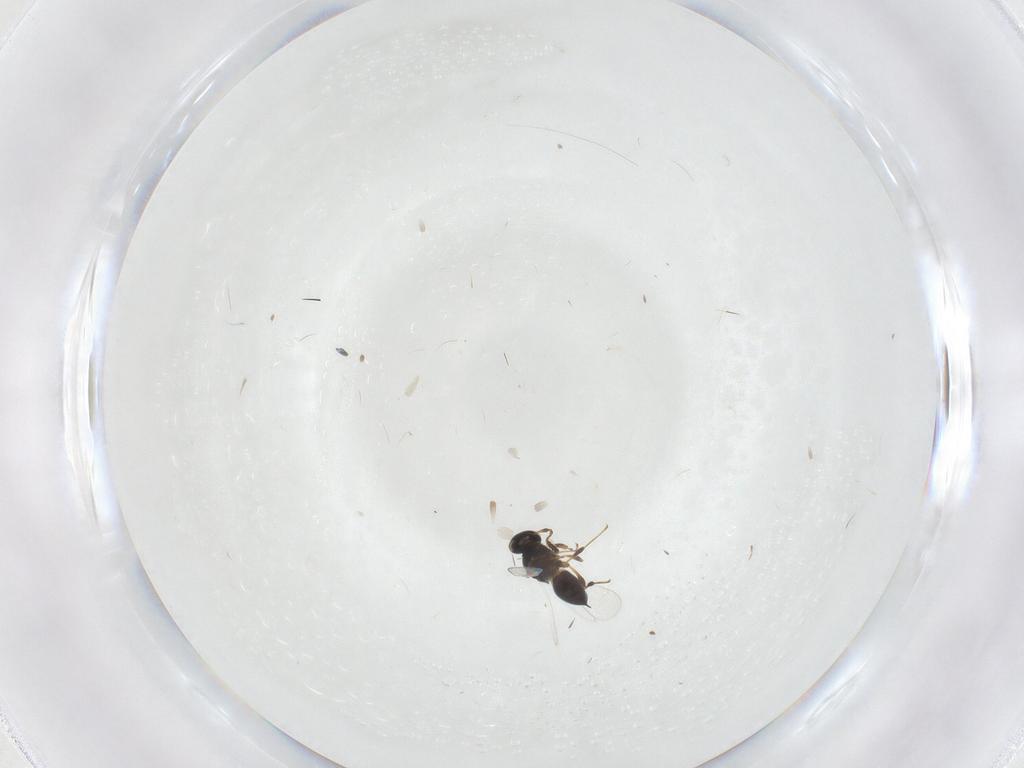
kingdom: Animalia
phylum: Arthropoda
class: Insecta
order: Hymenoptera
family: Platygastridae
